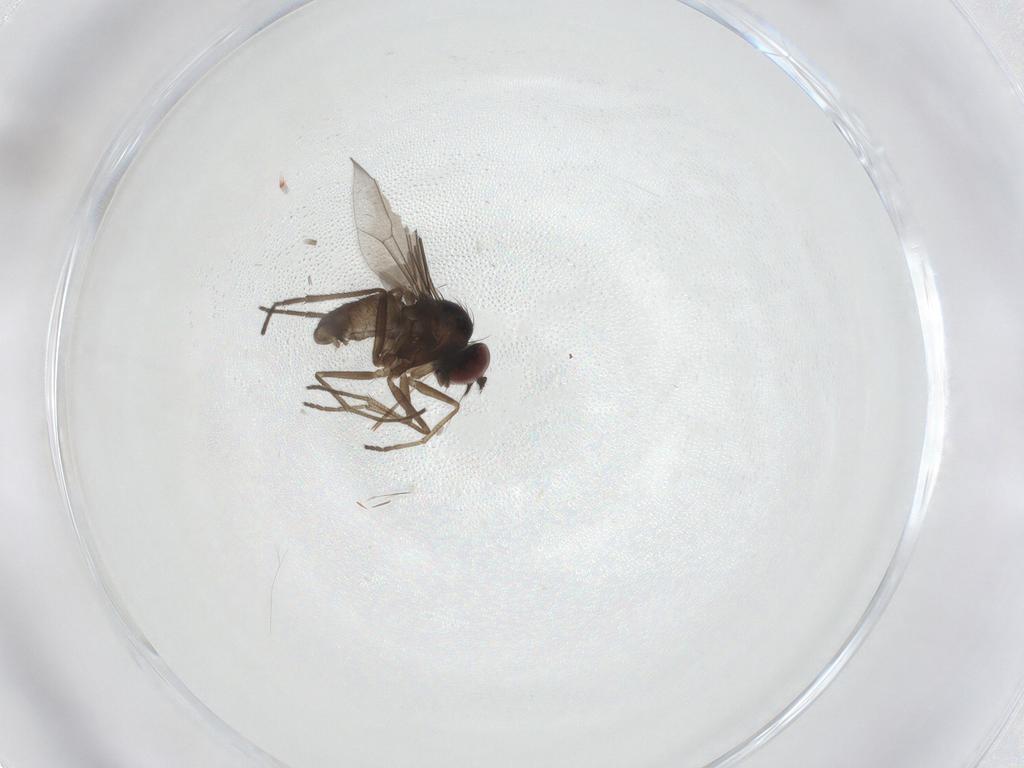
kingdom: Animalia
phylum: Arthropoda
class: Insecta
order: Diptera
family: Dolichopodidae
